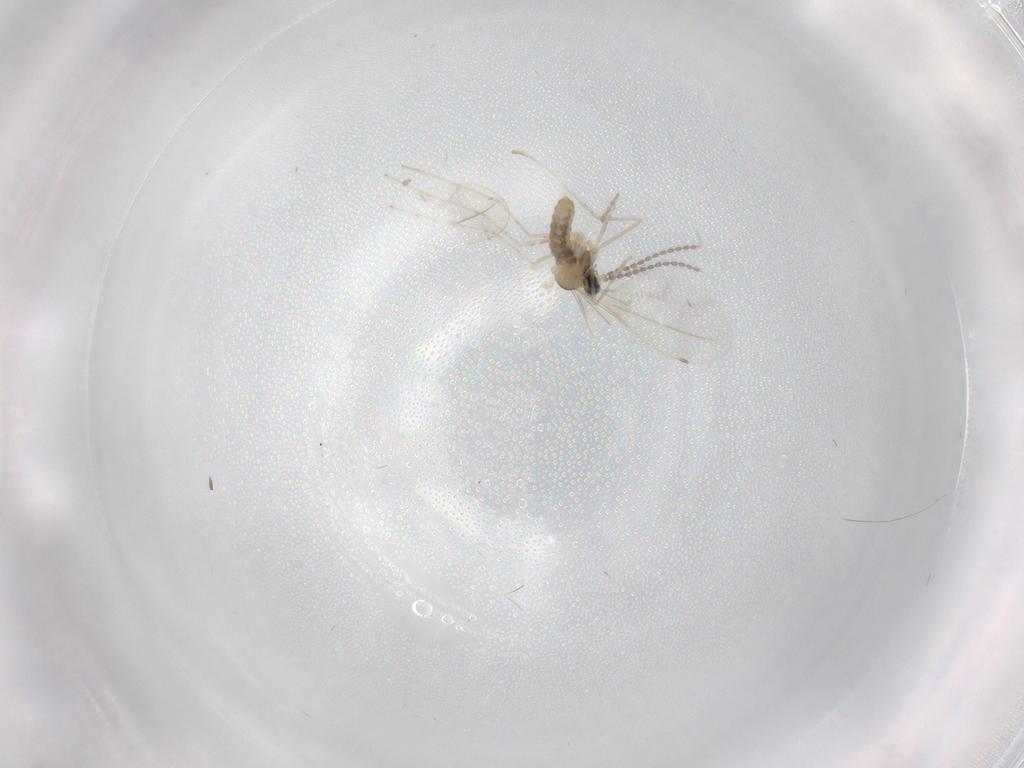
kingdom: Animalia
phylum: Arthropoda
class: Insecta
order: Diptera
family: Cecidomyiidae
